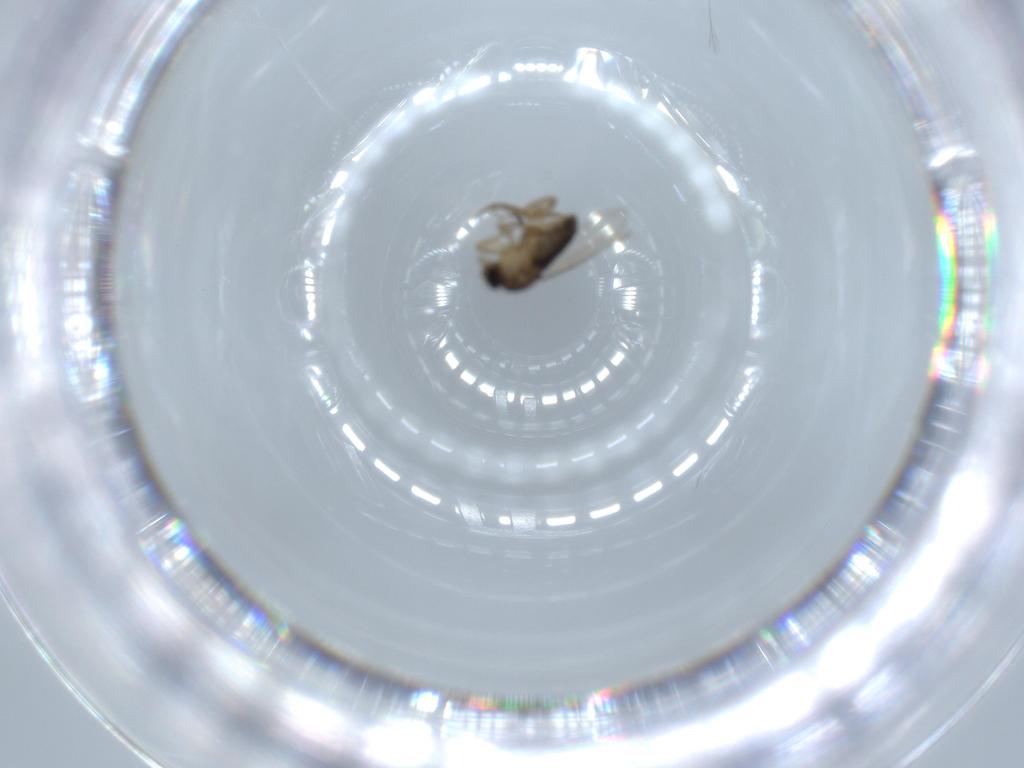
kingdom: Animalia
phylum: Arthropoda
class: Insecta
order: Diptera
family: Phoridae
